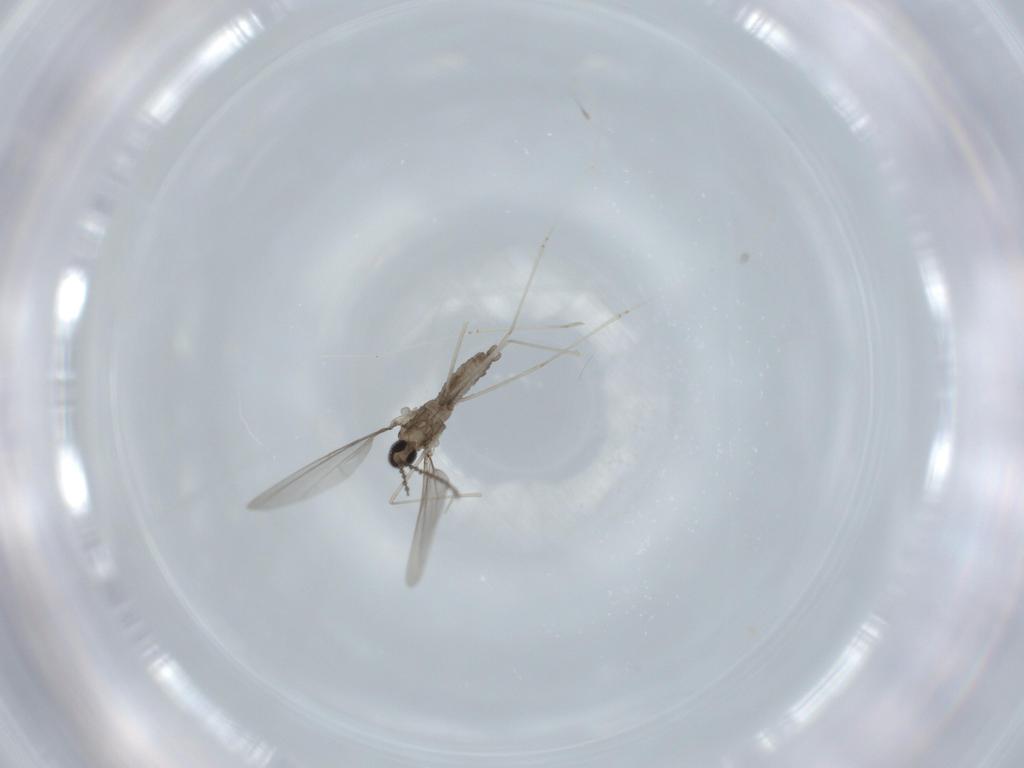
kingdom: Animalia
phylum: Arthropoda
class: Insecta
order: Diptera
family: Cecidomyiidae
